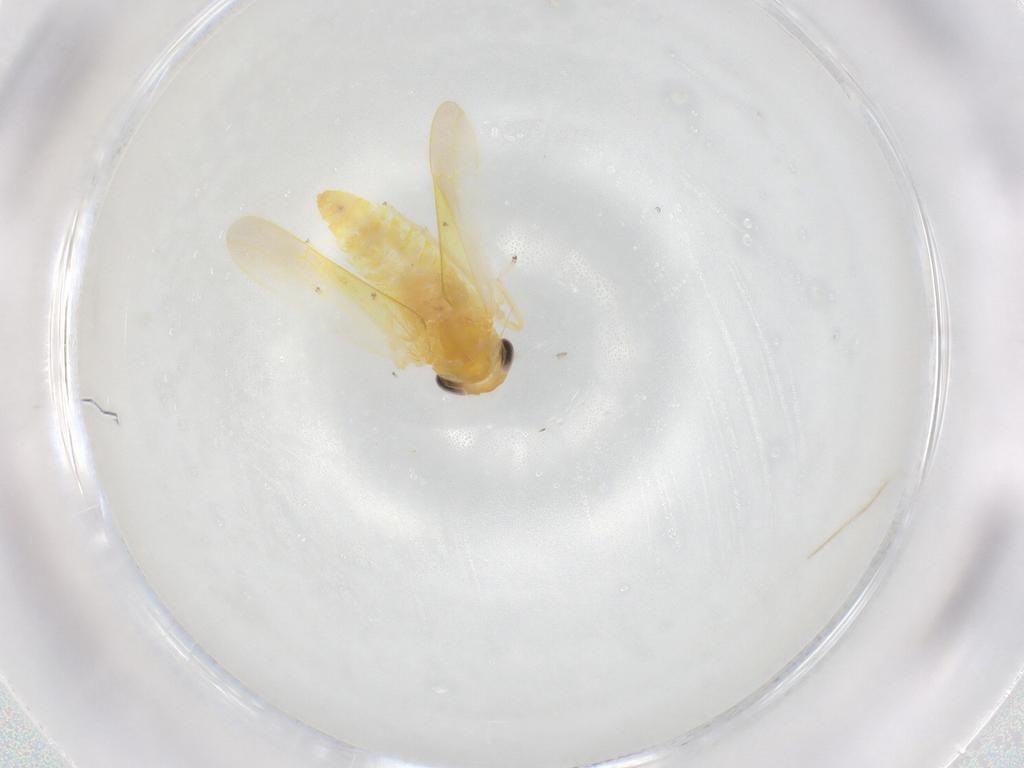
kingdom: Animalia
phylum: Arthropoda
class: Insecta
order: Hemiptera
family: Cicadellidae
